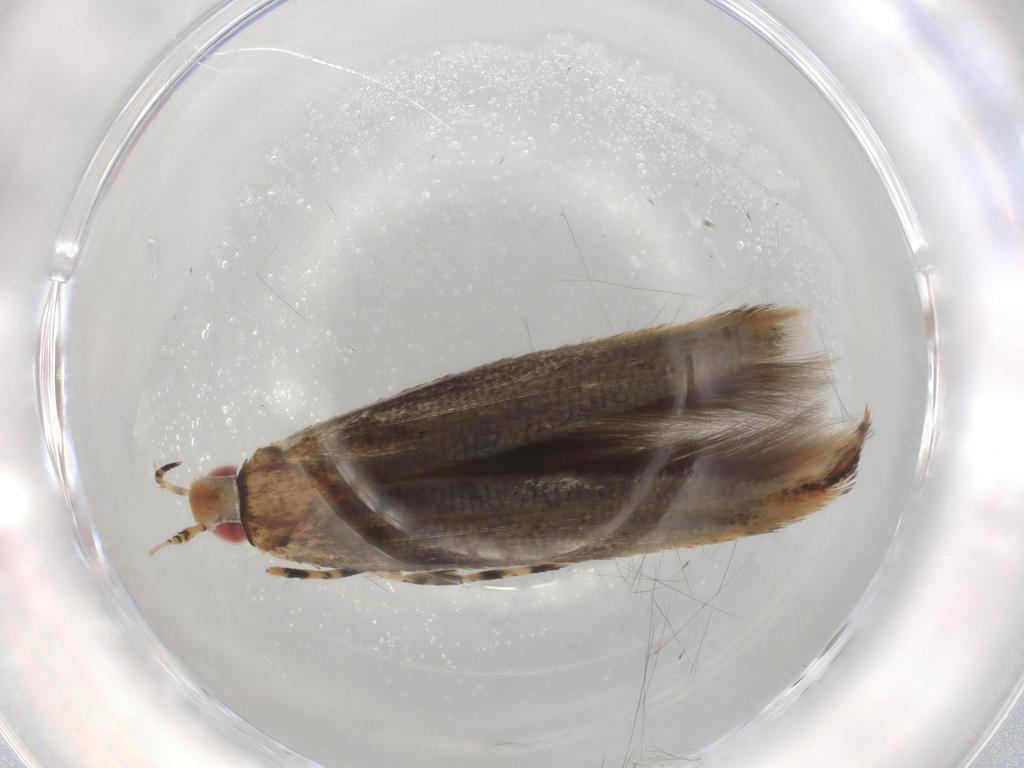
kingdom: Animalia
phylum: Arthropoda
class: Insecta
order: Lepidoptera
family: Cosmopterigidae
